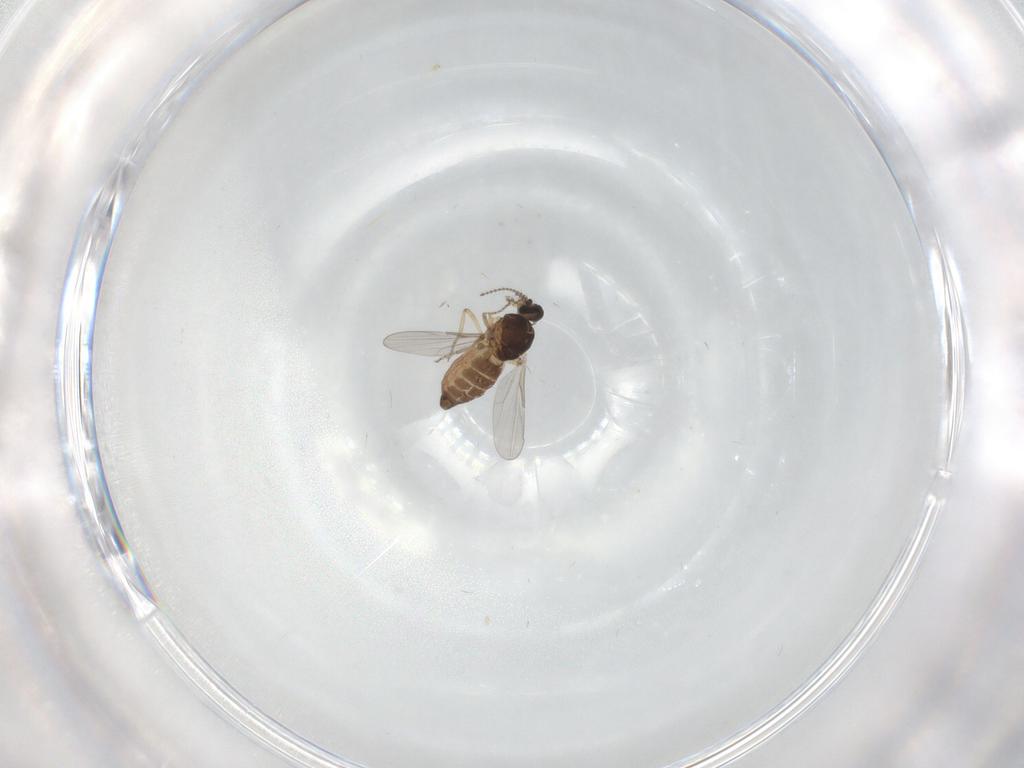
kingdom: Animalia
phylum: Arthropoda
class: Insecta
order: Diptera
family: Ceratopogonidae
